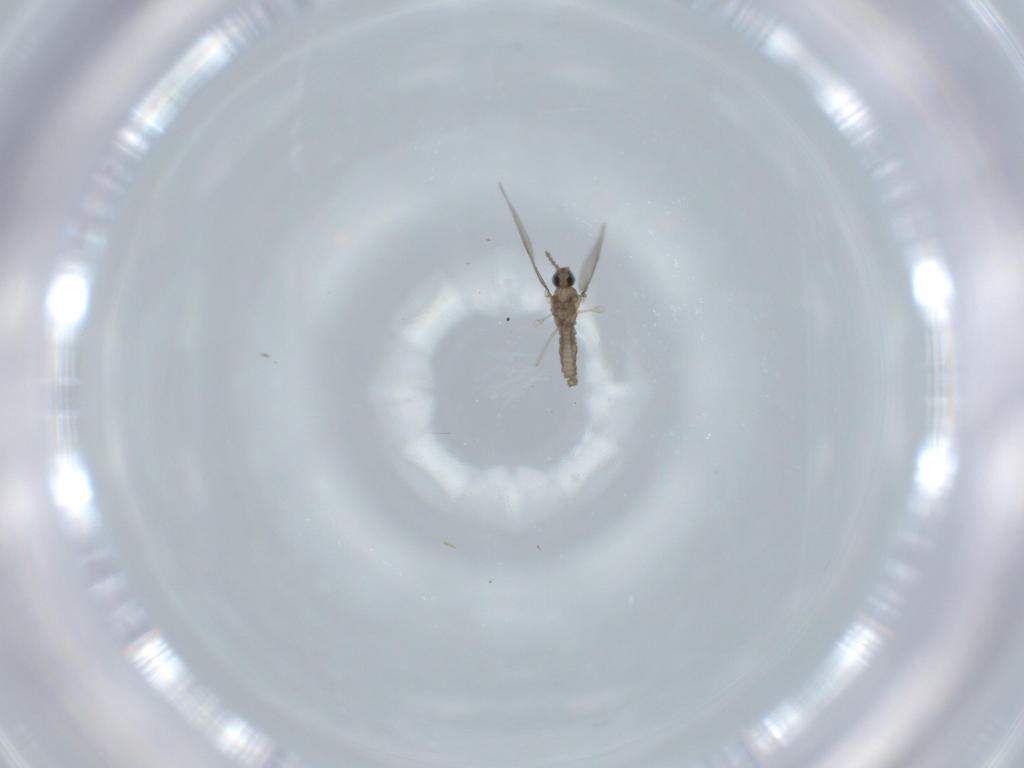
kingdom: Animalia
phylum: Arthropoda
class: Insecta
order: Diptera
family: Cecidomyiidae
